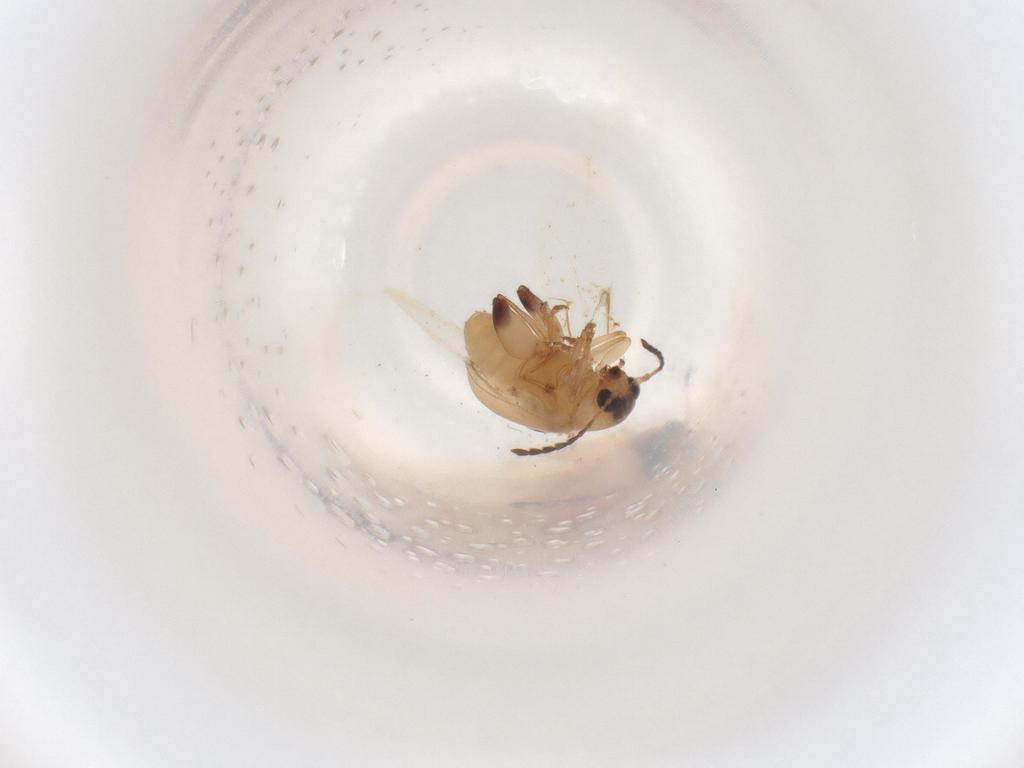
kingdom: Animalia
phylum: Arthropoda
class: Insecta
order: Coleoptera
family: Chrysomelidae
